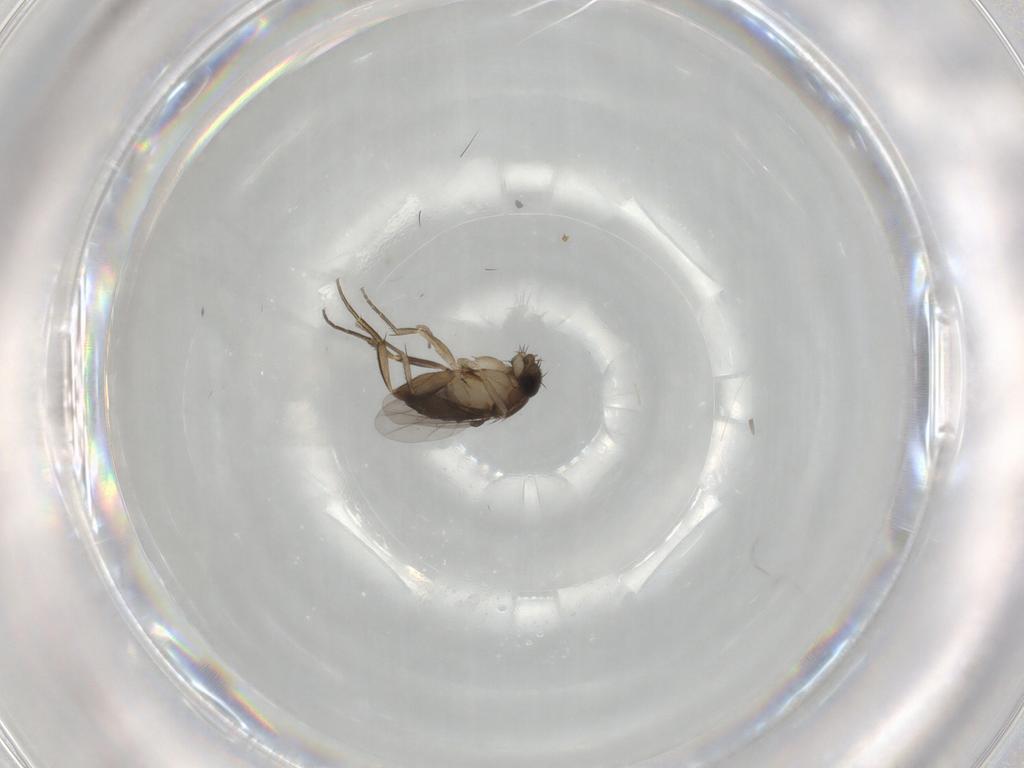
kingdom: Animalia
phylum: Arthropoda
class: Insecta
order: Diptera
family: Phoridae
